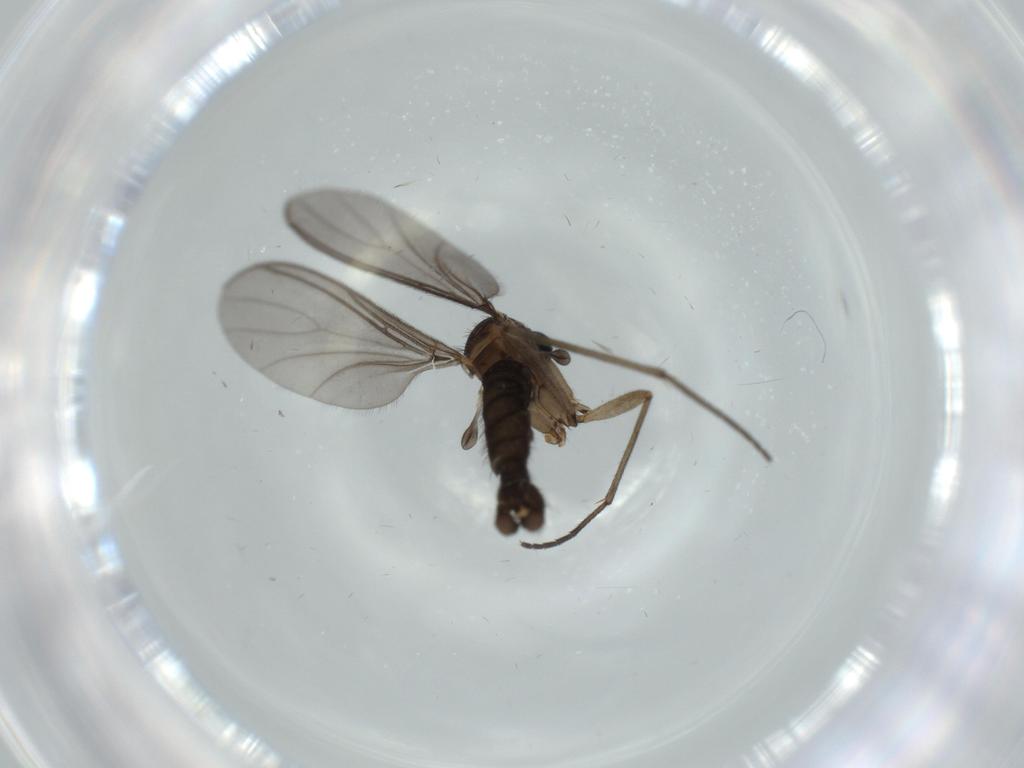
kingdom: Animalia
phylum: Arthropoda
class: Insecta
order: Diptera
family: Sciaridae
